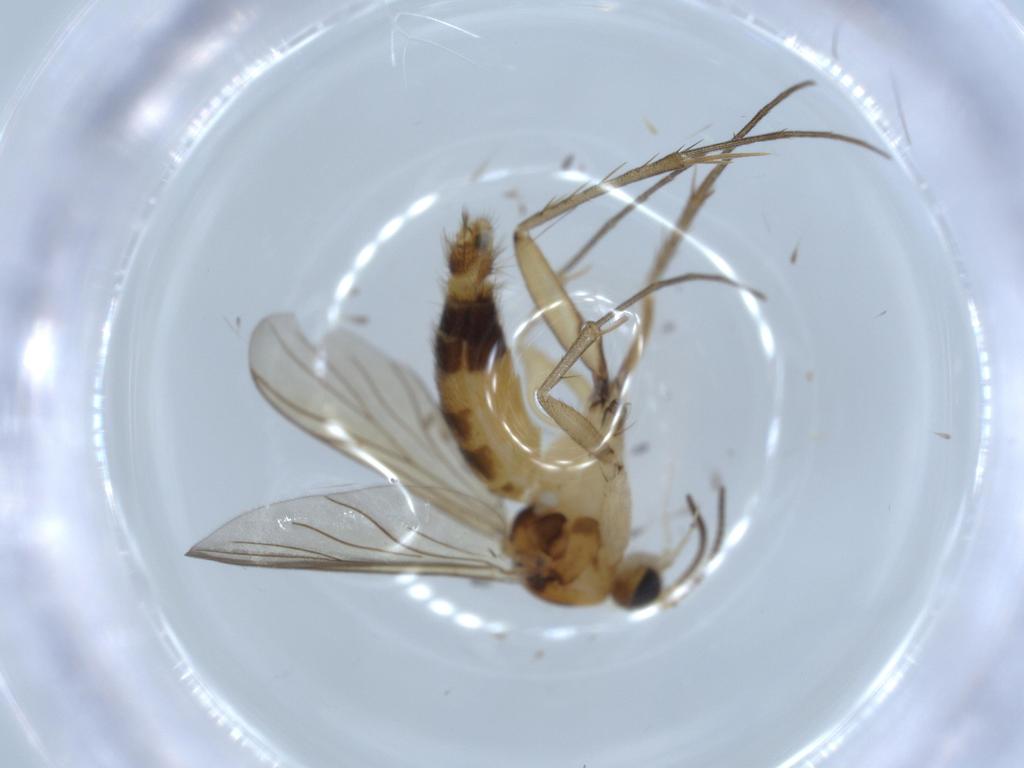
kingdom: Animalia
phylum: Arthropoda
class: Insecta
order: Diptera
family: Mycetophilidae
